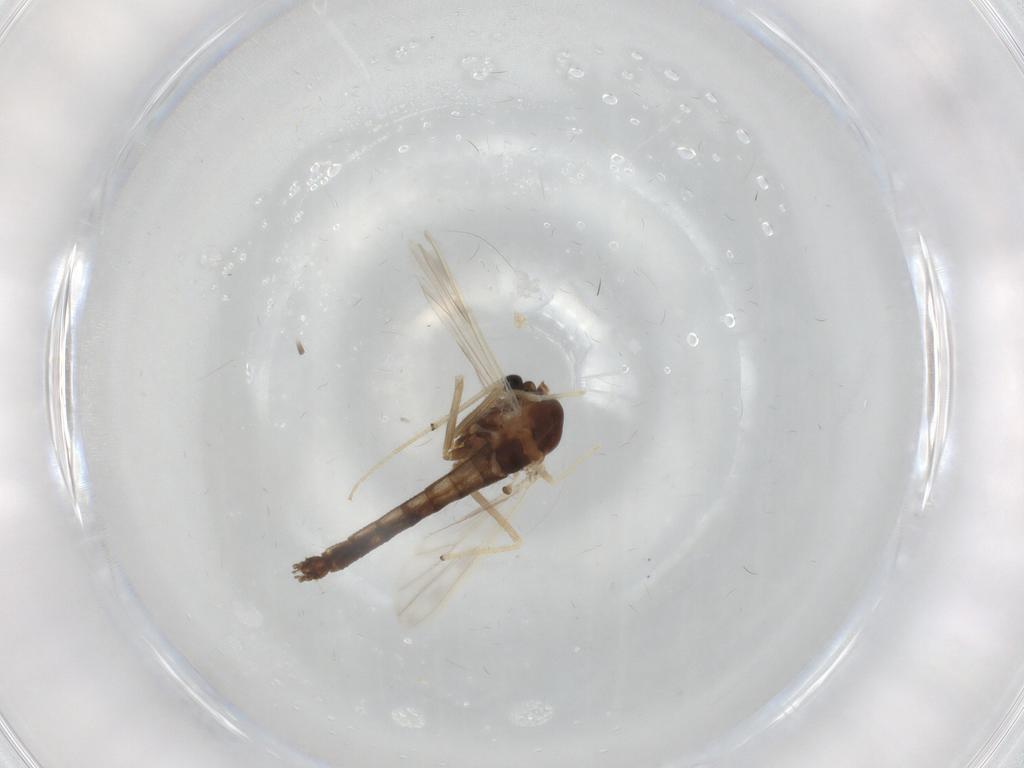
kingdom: Animalia
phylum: Arthropoda
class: Insecta
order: Diptera
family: Chironomidae
